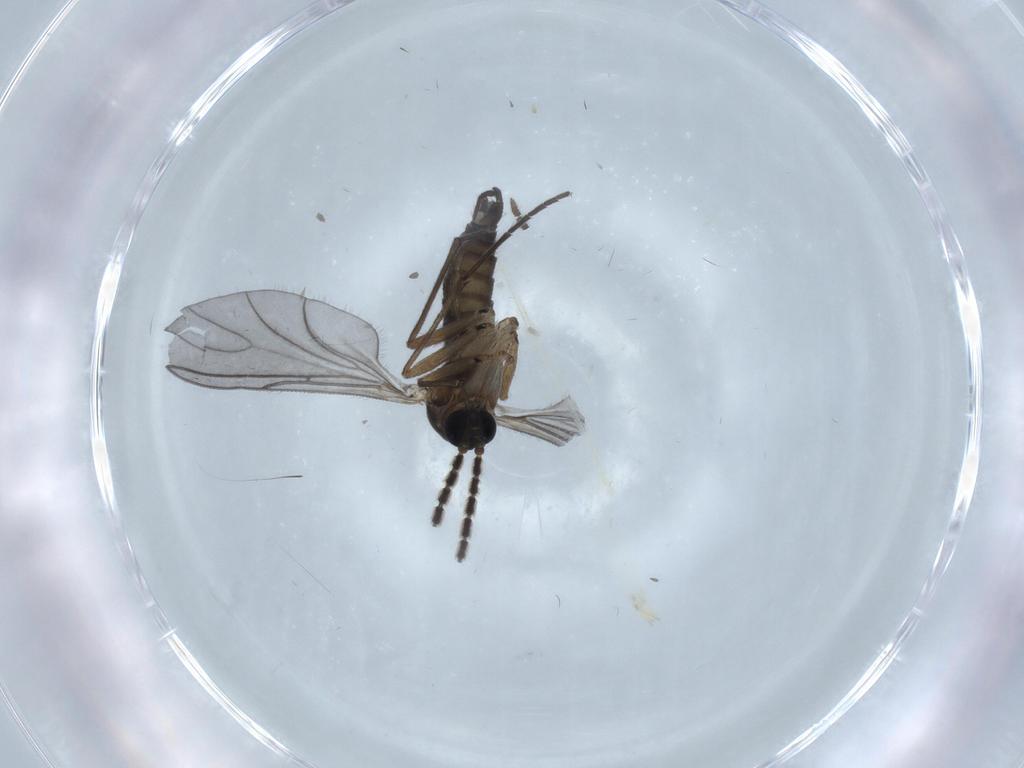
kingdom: Animalia
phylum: Arthropoda
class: Insecta
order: Diptera
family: Sciaridae
